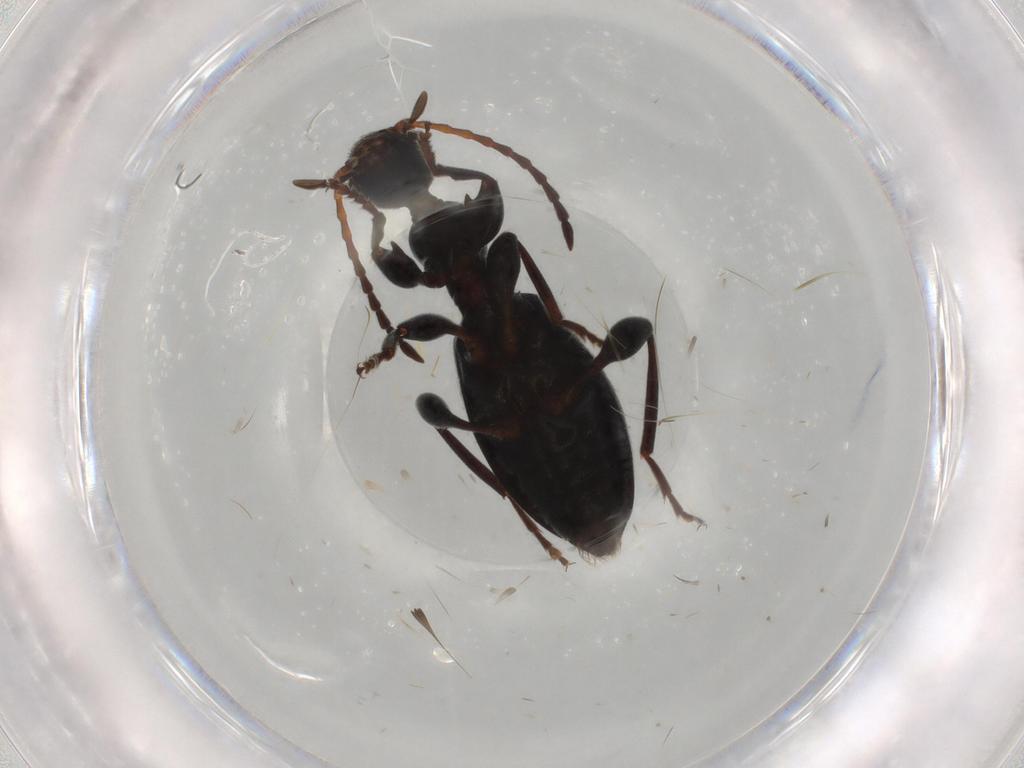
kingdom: Animalia
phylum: Arthropoda
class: Insecta
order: Coleoptera
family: Anthicidae
